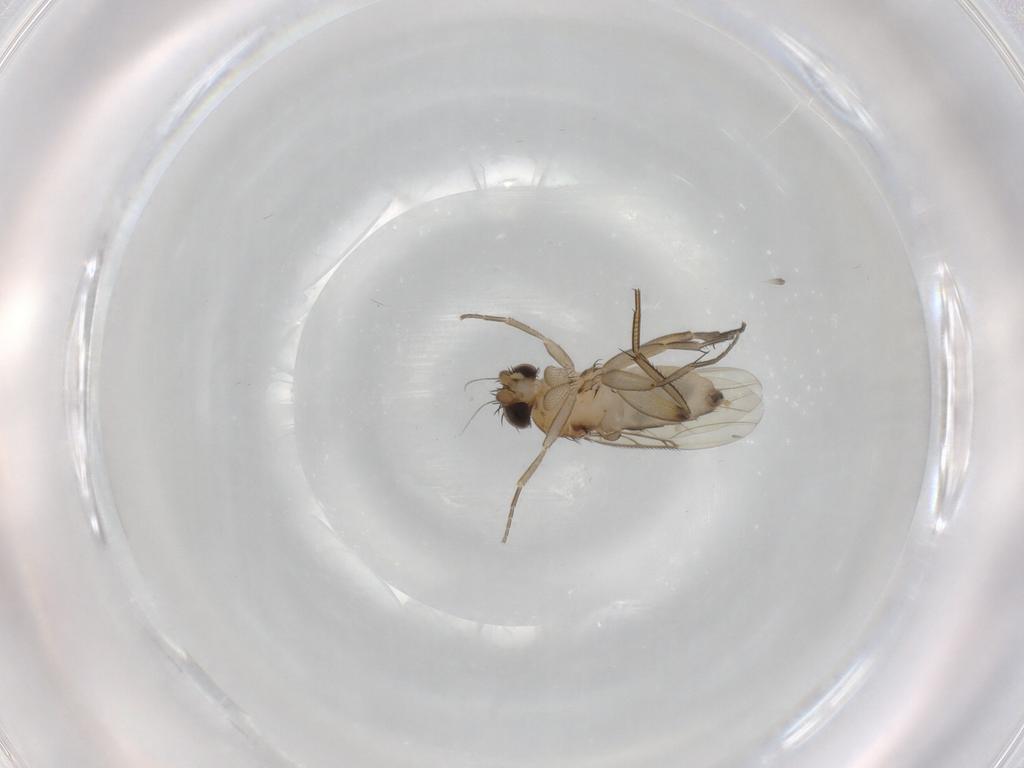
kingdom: Animalia
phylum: Arthropoda
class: Insecta
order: Diptera
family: Phoridae
